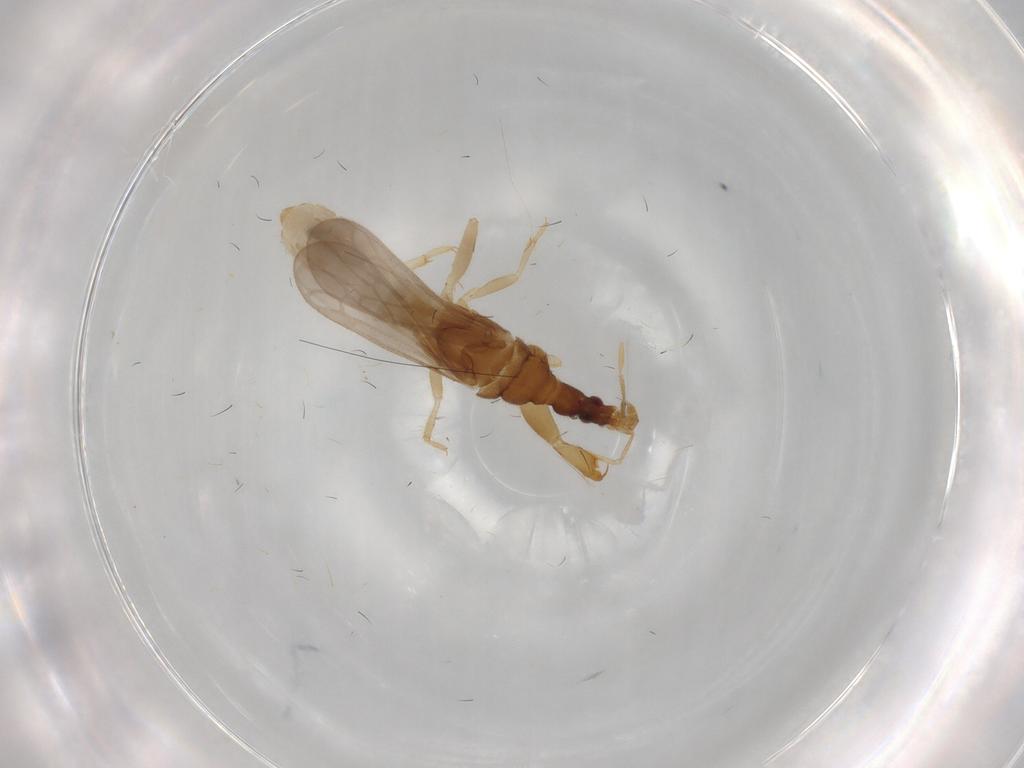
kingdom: Animalia
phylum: Arthropoda
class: Insecta
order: Hemiptera
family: Enicocephalidae
